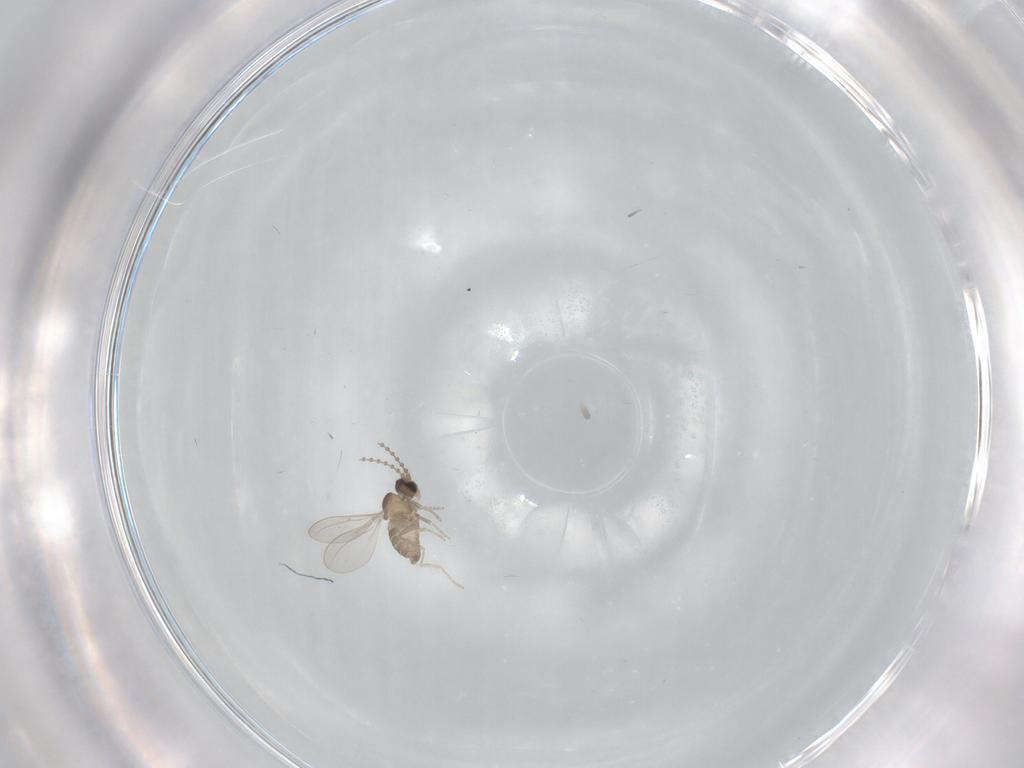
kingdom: Animalia
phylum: Arthropoda
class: Insecta
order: Diptera
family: Cecidomyiidae
